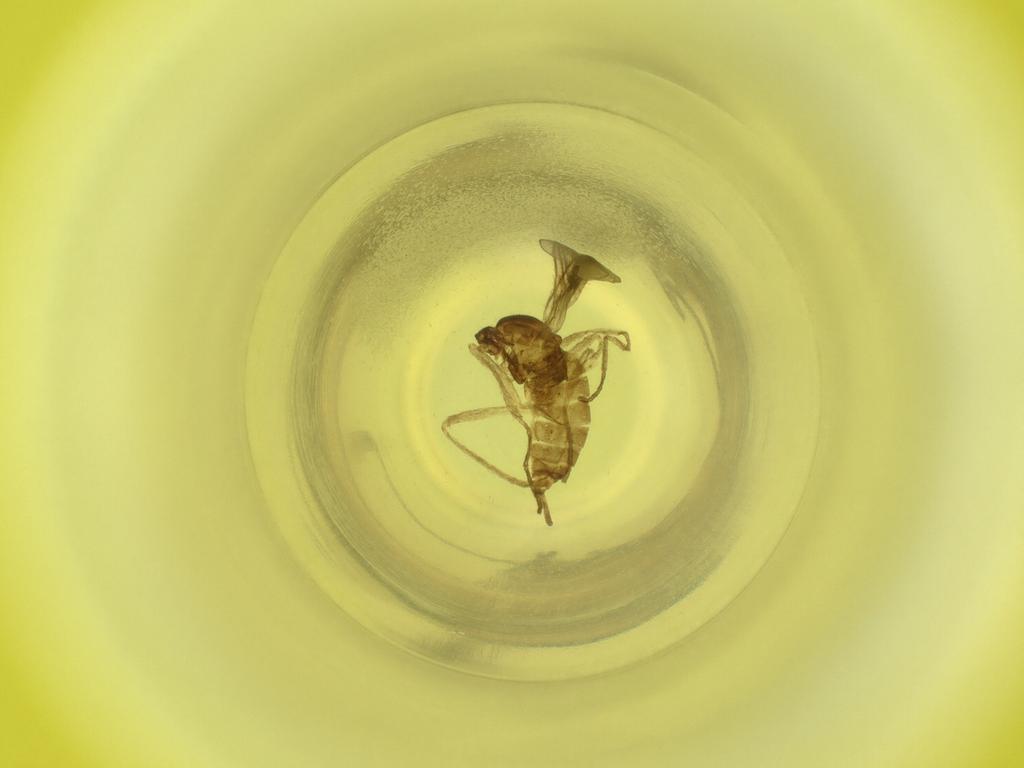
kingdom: Animalia
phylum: Arthropoda
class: Insecta
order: Diptera
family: Cecidomyiidae
